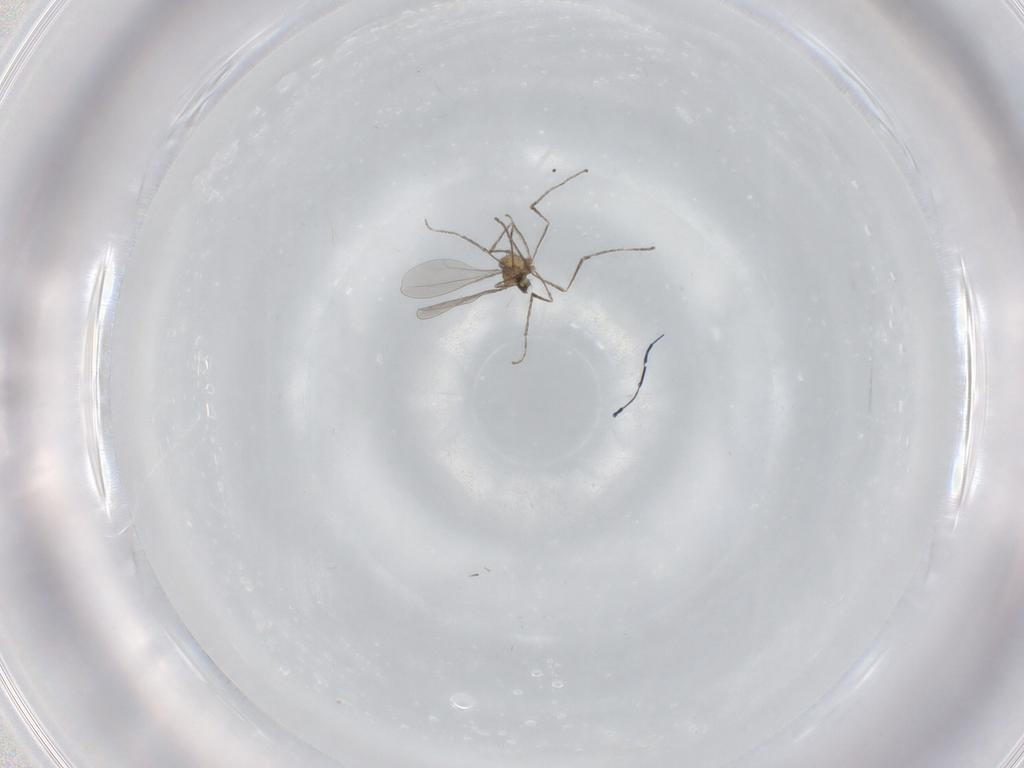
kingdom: Animalia
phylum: Arthropoda
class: Insecta
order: Diptera
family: Cecidomyiidae
